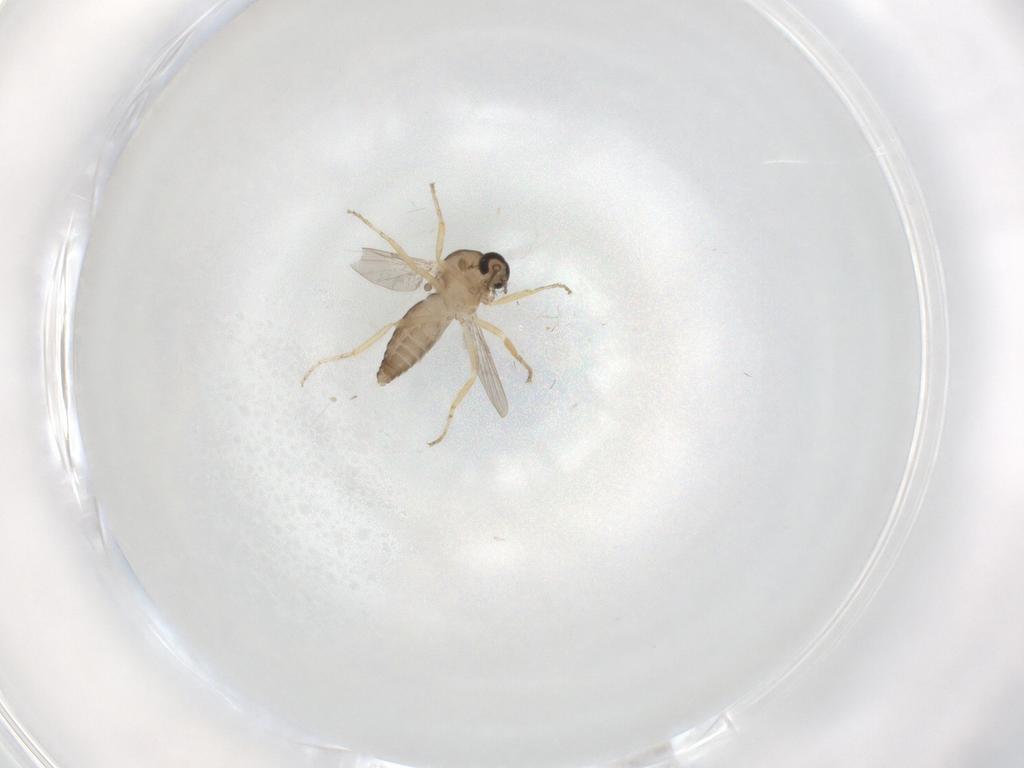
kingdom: Animalia
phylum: Arthropoda
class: Insecta
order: Diptera
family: Ceratopogonidae
